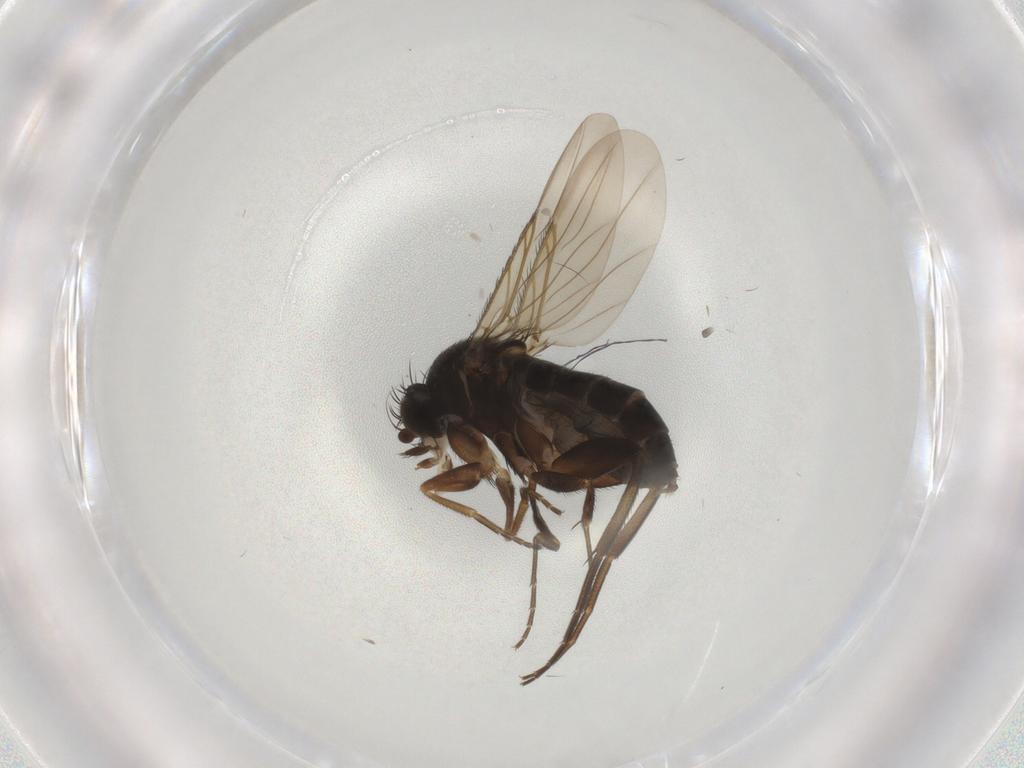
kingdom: Animalia
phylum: Arthropoda
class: Insecta
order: Diptera
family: Phoridae
